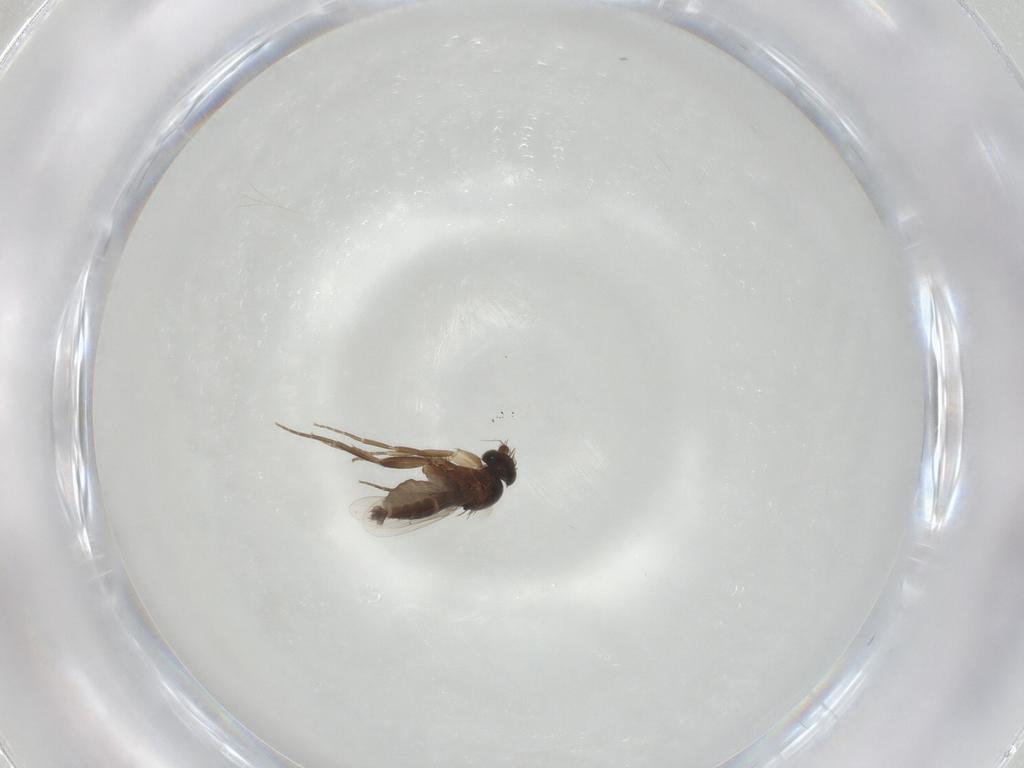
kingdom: Animalia
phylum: Arthropoda
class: Insecta
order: Diptera
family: Phoridae
